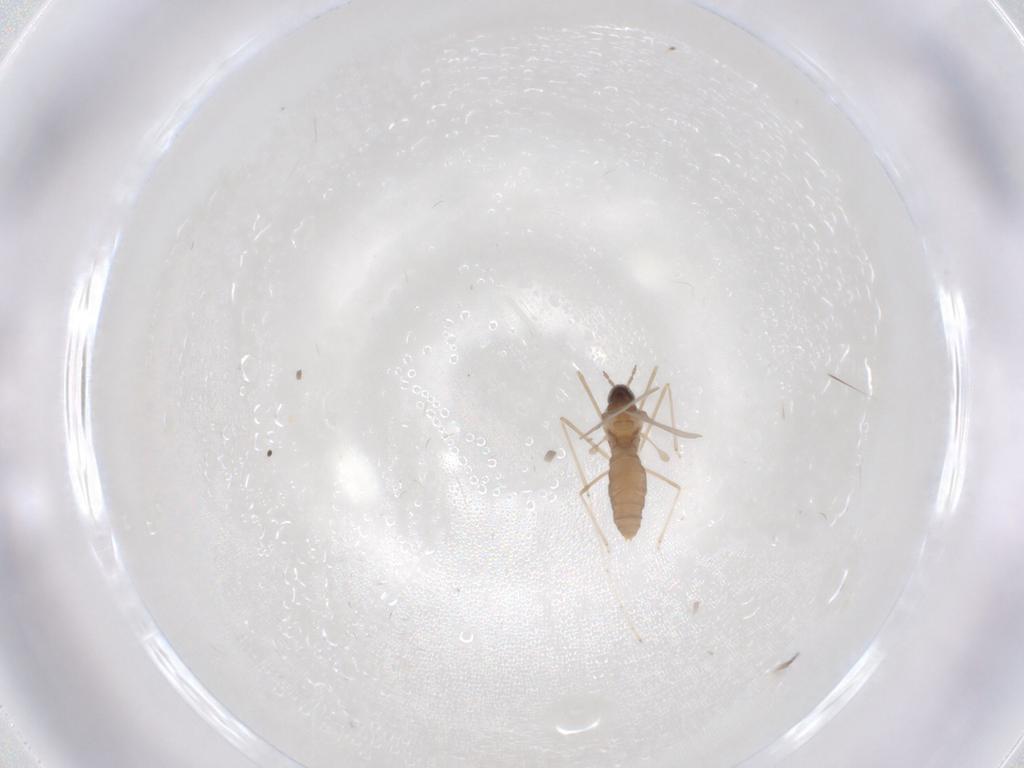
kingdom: Animalia
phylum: Arthropoda
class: Insecta
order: Diptera
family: Cecidomyiidae
